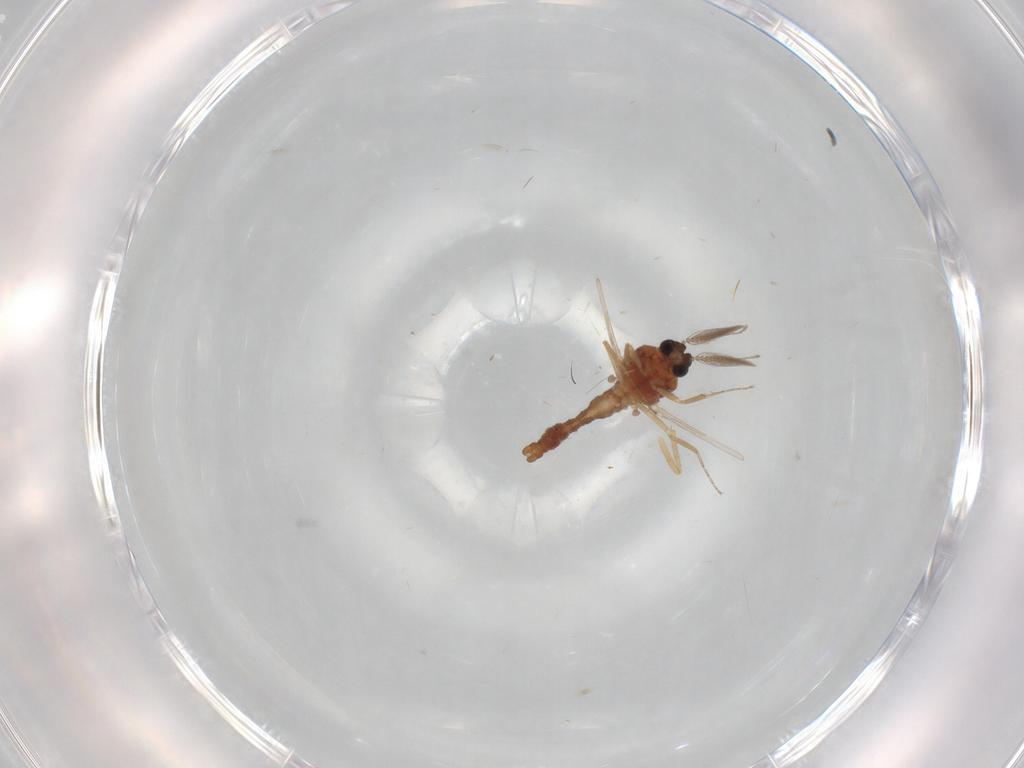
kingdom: Animalia
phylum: Arthropoda
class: Insecta
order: Diptera
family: Ceratopogonidae
